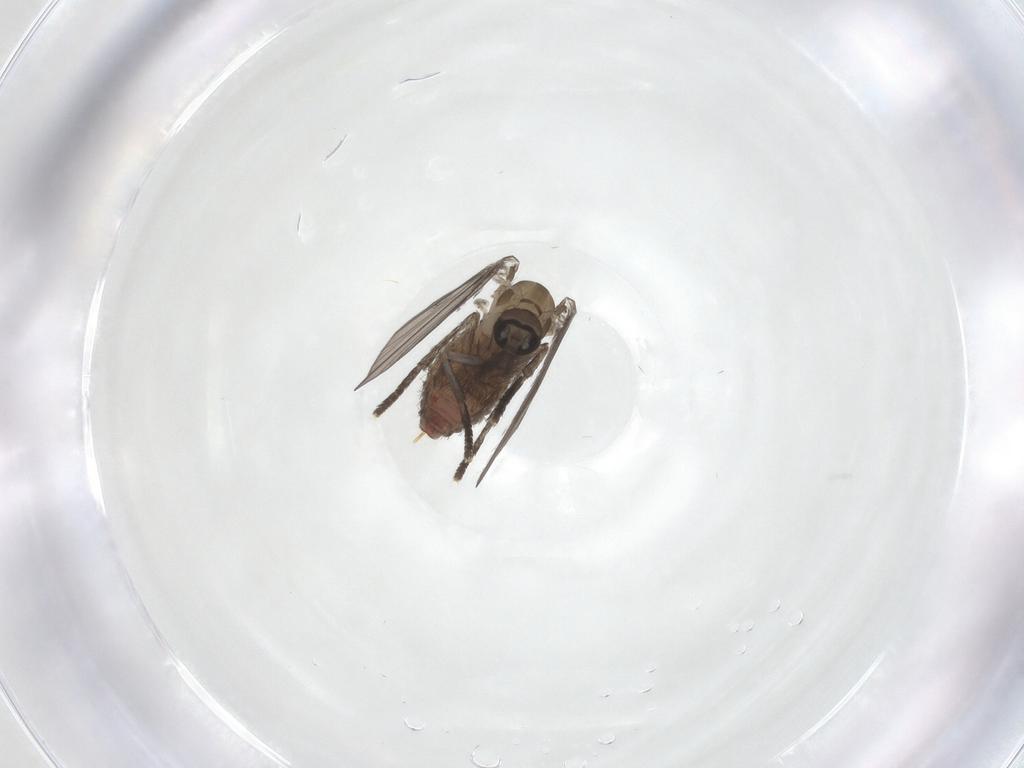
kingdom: Animalia
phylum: Arthropoda
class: Insecta
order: Diptera
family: Psychodidae
